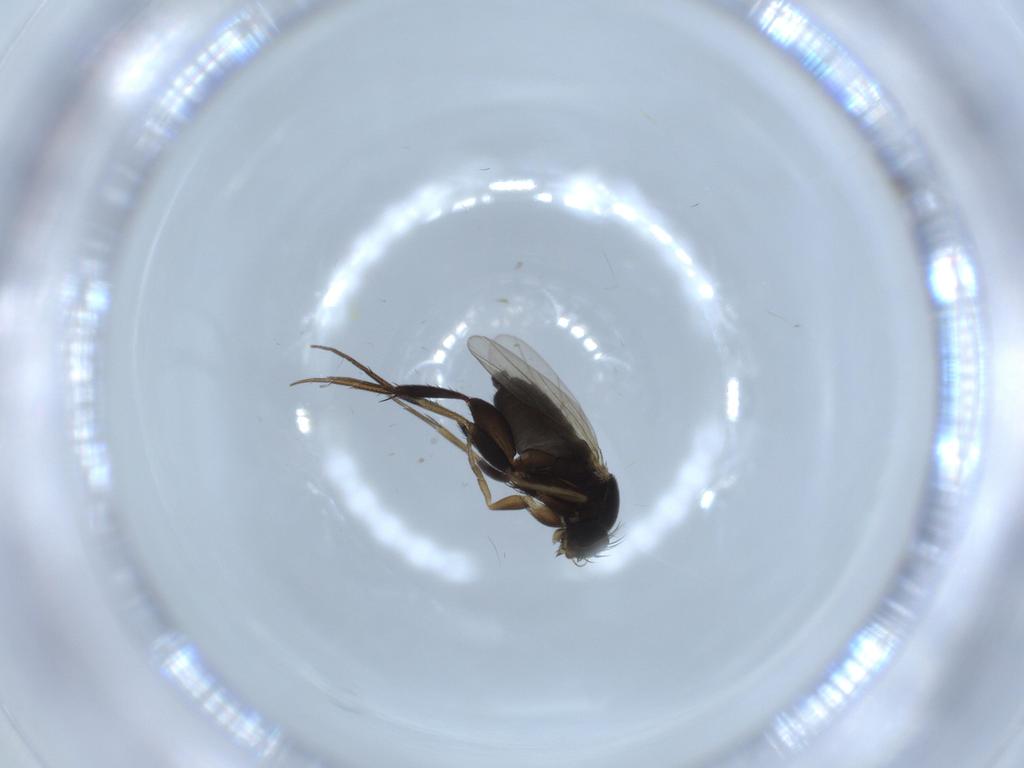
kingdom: Animalia
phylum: Arthropoda
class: Insecta
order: Diptera
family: Phoridae
